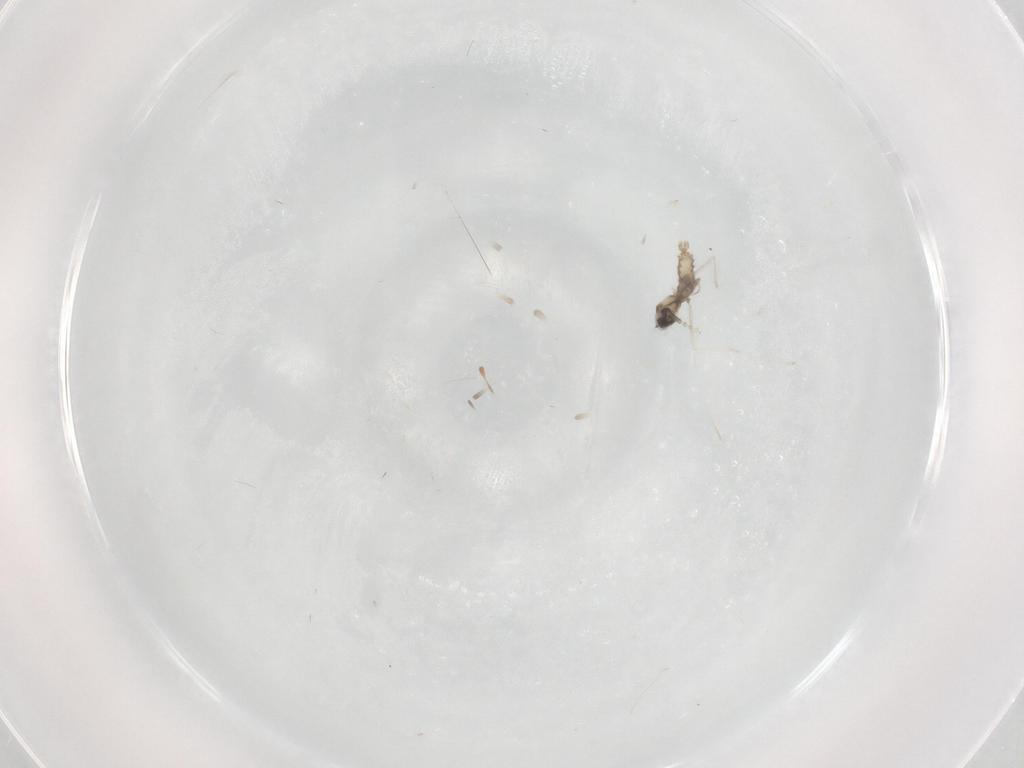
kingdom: Animalia
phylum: Arthropoda
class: Insecta
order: Diptera
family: Cecidomyiidae
